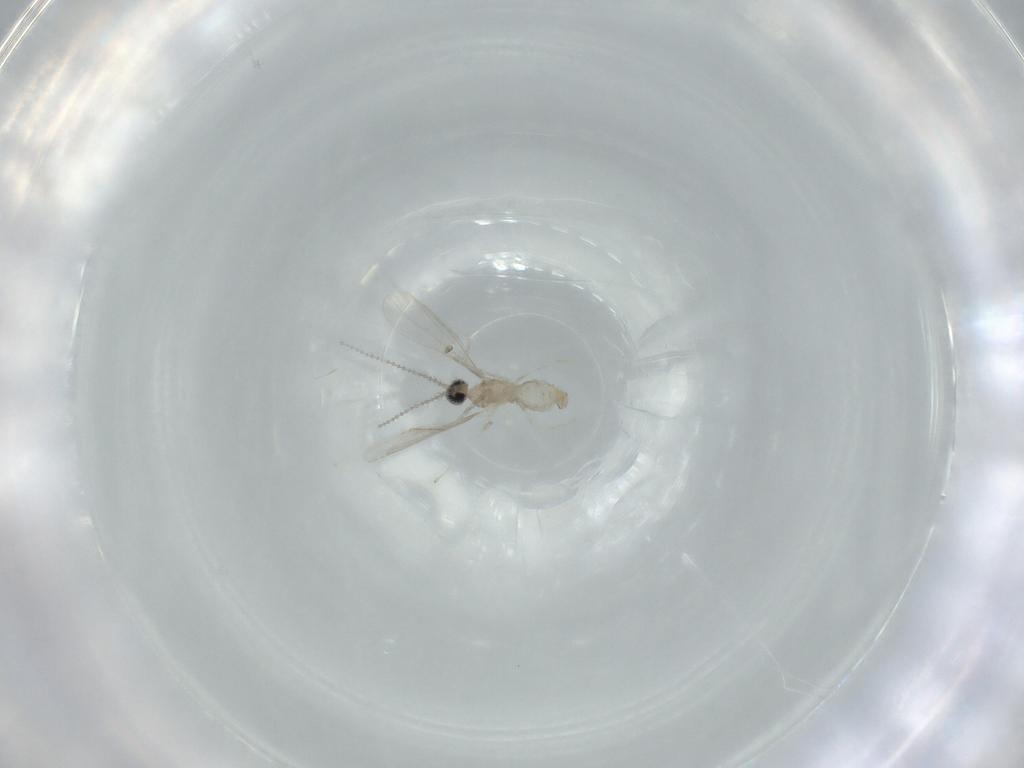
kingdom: Animalia
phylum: Arthropoda
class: Insecta
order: Diptera
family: Cecidomyiidae
